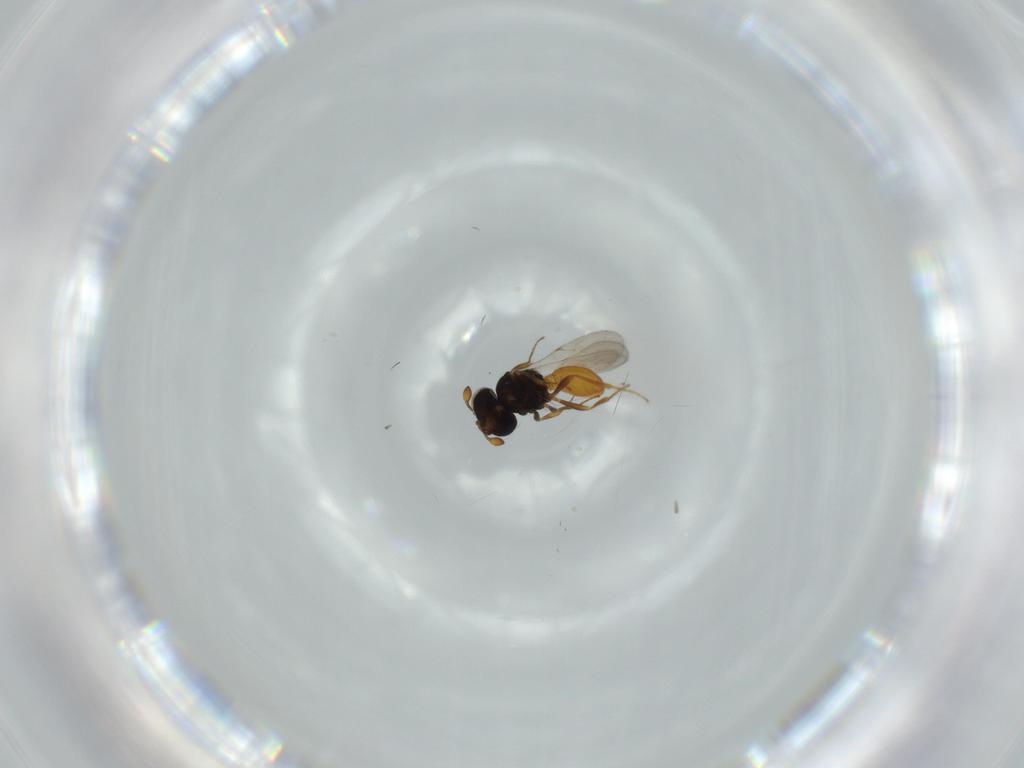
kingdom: Animalia
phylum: Arthropoda
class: Insecta
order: Hymenoptera
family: Scelionidae
